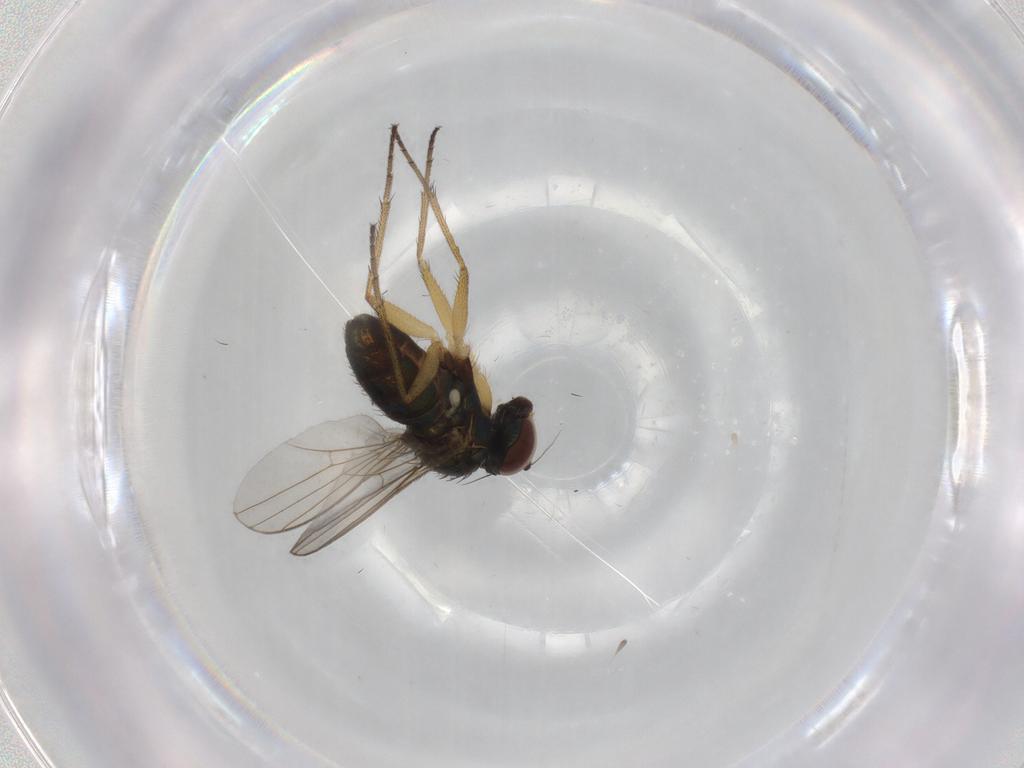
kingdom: Animalia
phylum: Arthropoda
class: Insecta
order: Diptera
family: Dolichopodidae
